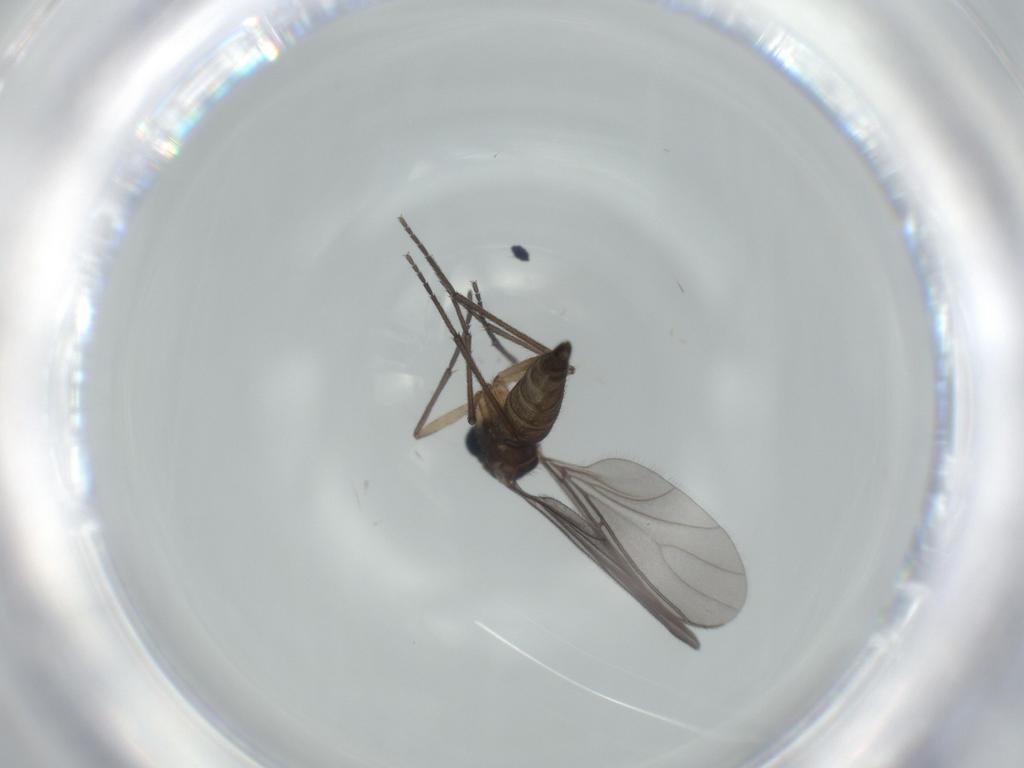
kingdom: Animalia
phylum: Arthropoda
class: Insecta
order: Diptera
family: Sciaridae
